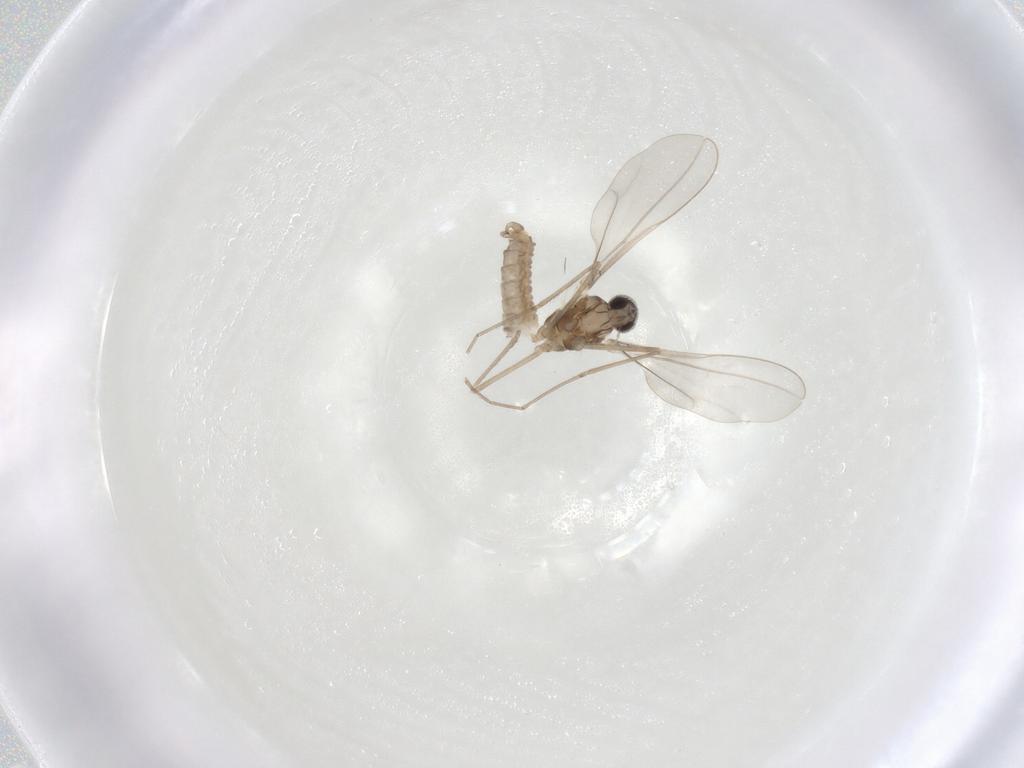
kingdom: Animalia
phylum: Arthropoda
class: Insecta
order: Diptera
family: Cecidomyiidae
